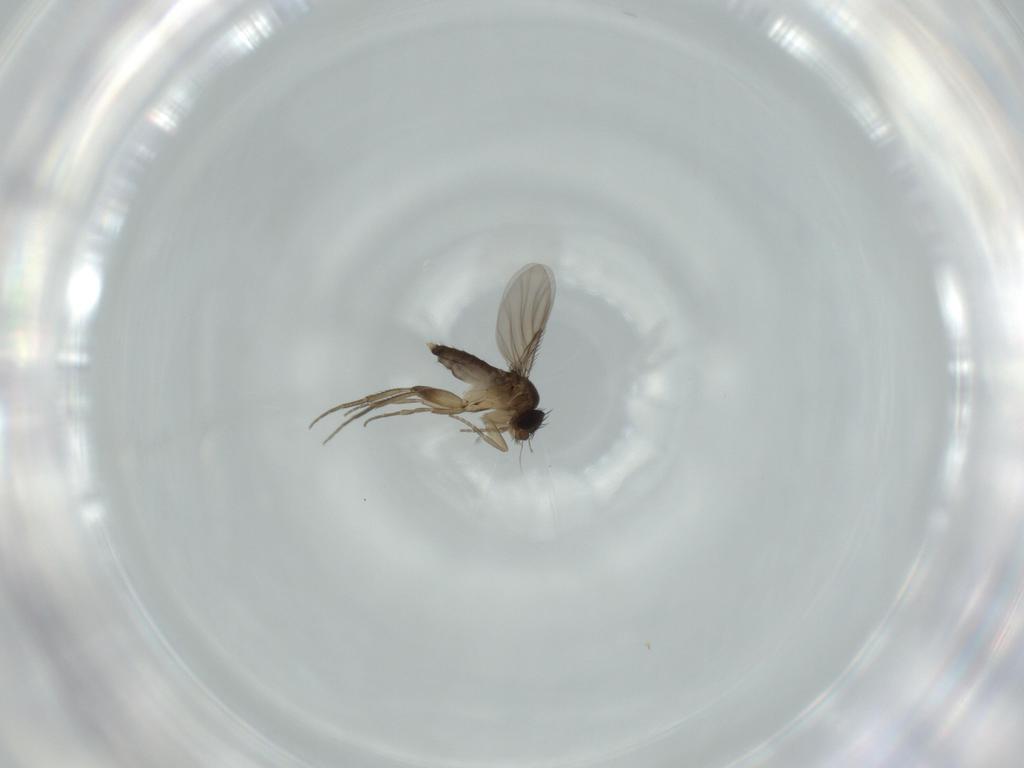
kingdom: Animalia
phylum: Arthropoda
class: Insecta
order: Diptera
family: Phoridae
